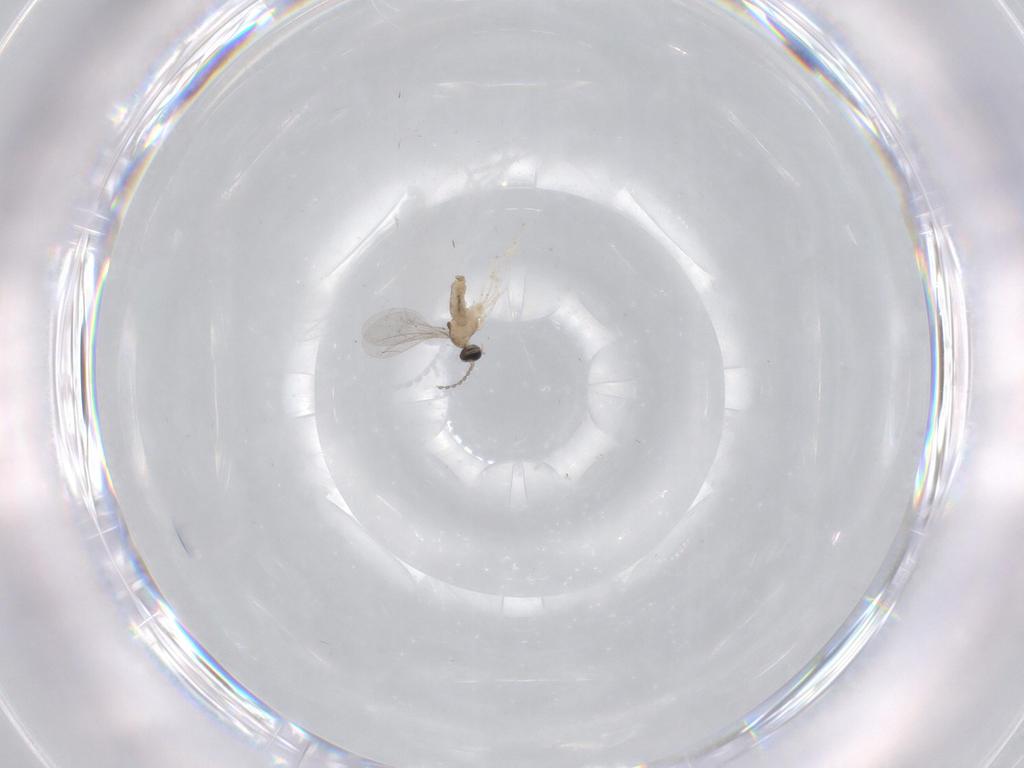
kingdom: Animalia
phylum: Arthropoda
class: Insecta
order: Diptera
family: Cecidomyiidae
